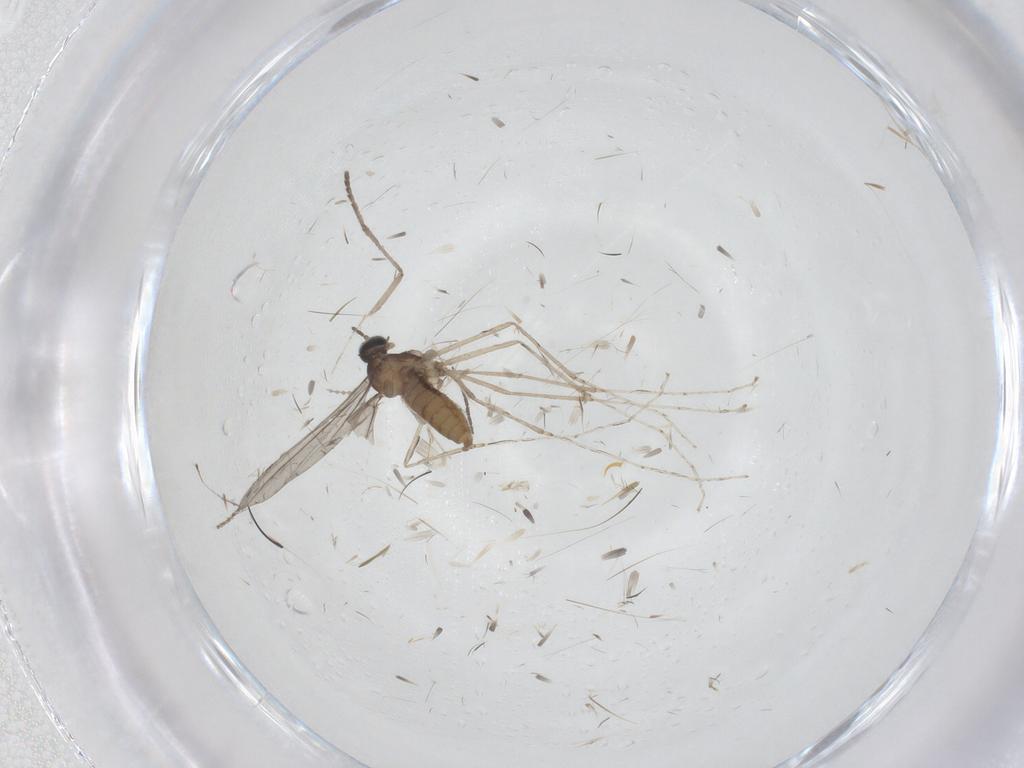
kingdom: Animalia
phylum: Arthropoda
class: Insecta
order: Diptera
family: Cecidomyiidae
